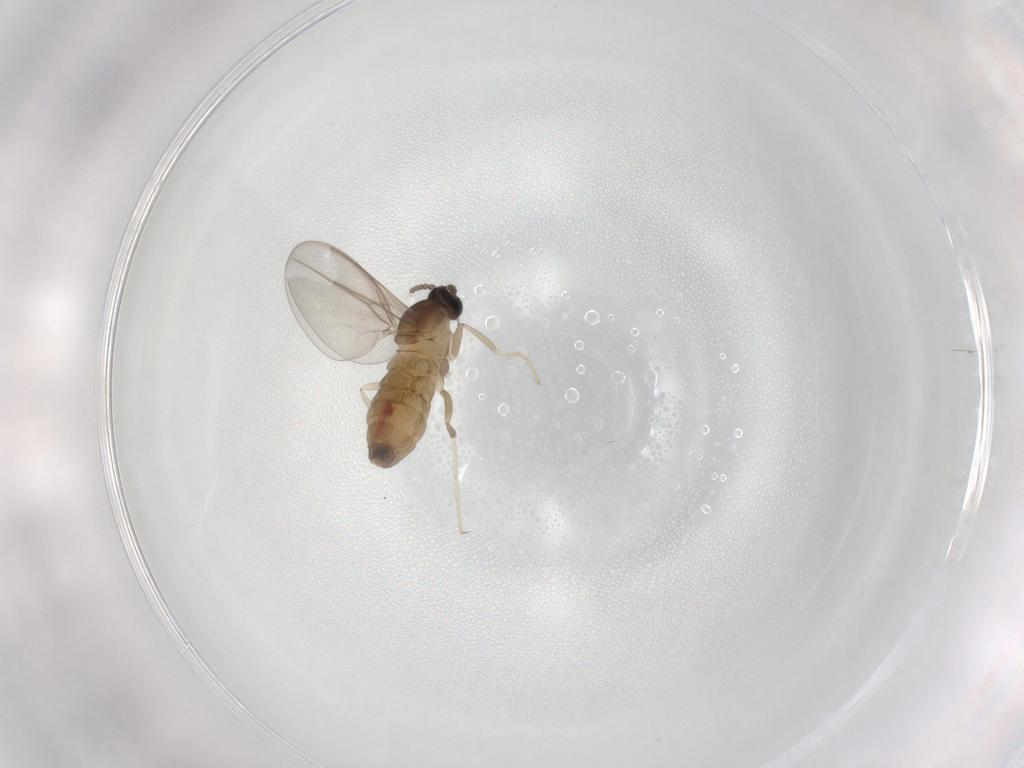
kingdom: Animalia
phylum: Arthropoda
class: Insecta
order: Diptera
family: Cecidomyiidae
